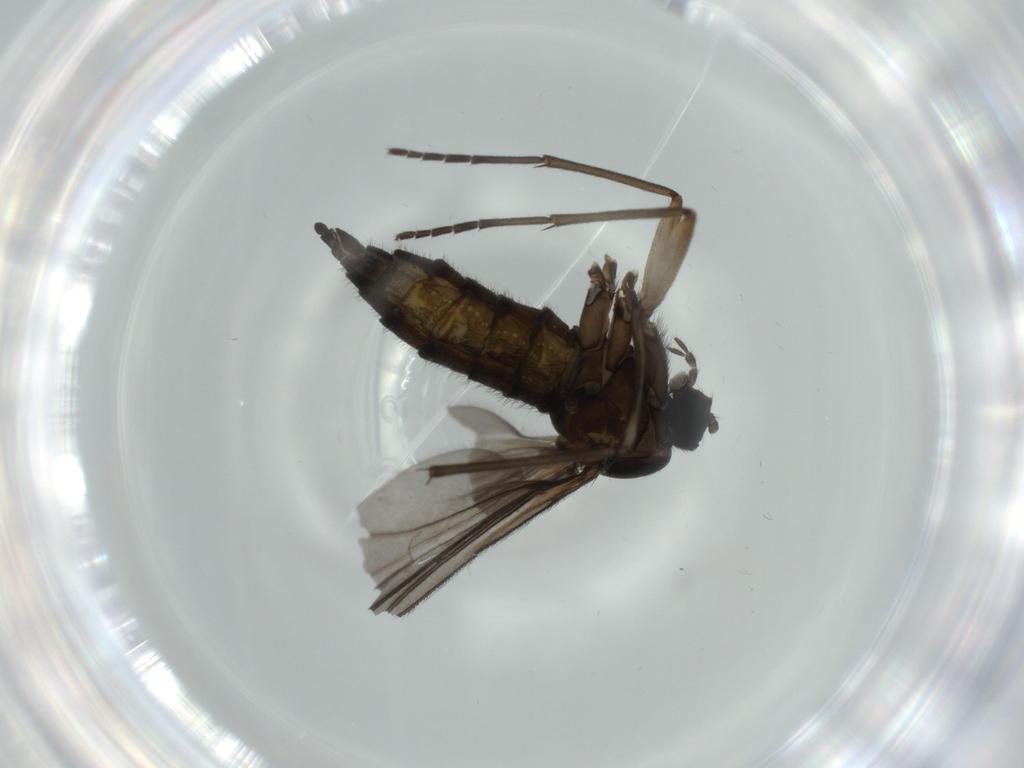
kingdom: Animalia
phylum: Arthropoda
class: Insecta
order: Diptera
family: Sciaridae
